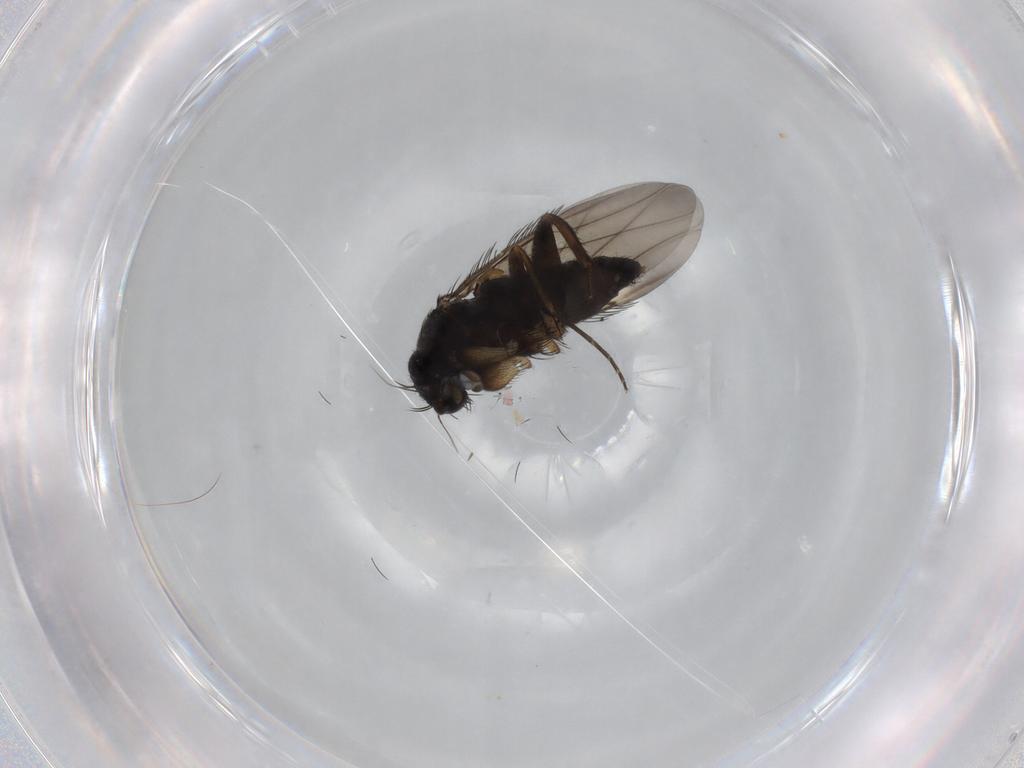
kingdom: Animalia
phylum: Arthropoda
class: Insecta
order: Diptera
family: Phoridae
